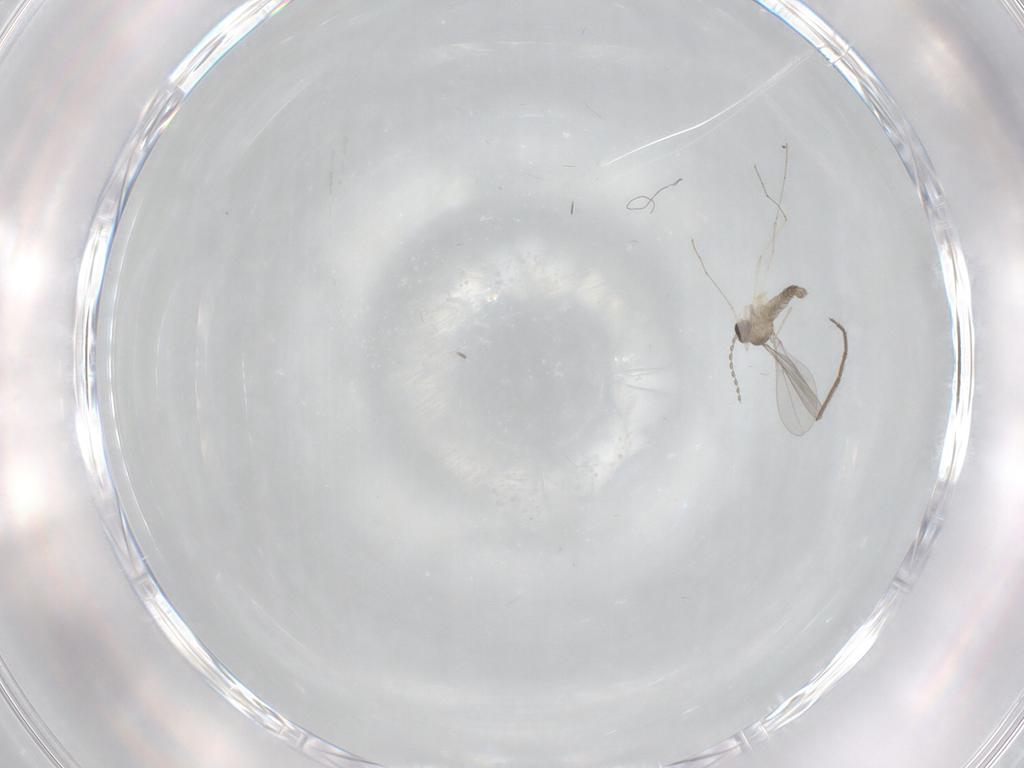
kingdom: Animalia
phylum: Arthropoda
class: Insecta
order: Diptera
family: Cecidomyiidae
